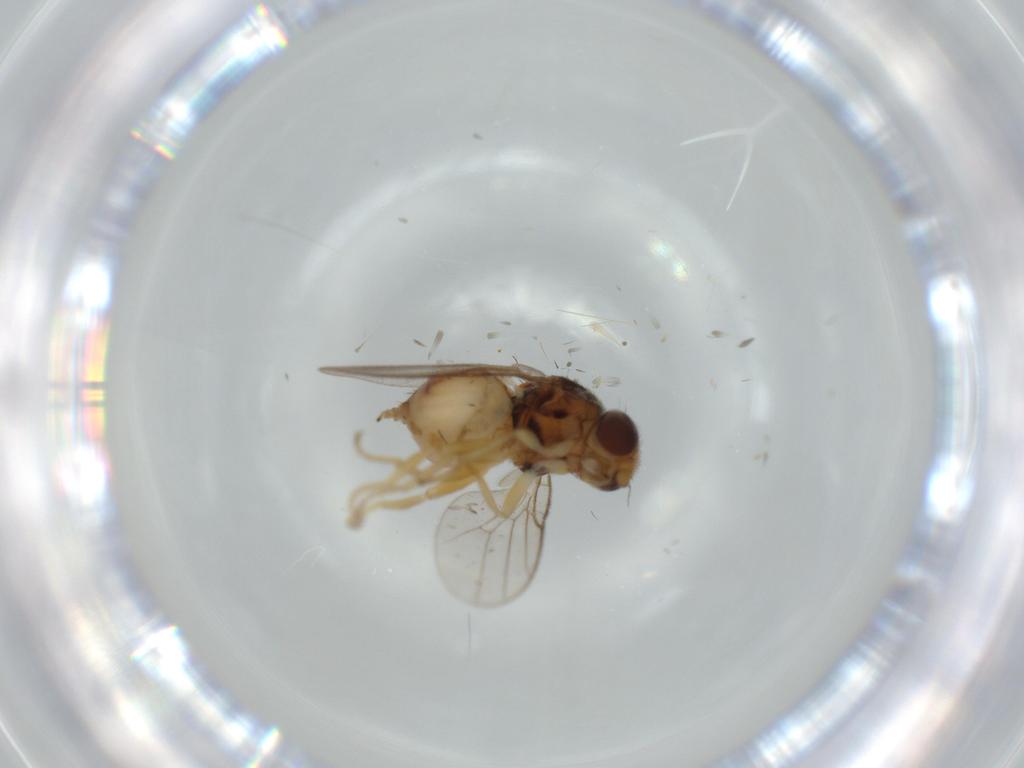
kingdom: Animalia
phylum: Arthropoda
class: Insecta
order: Diptera
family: Chloropidae
